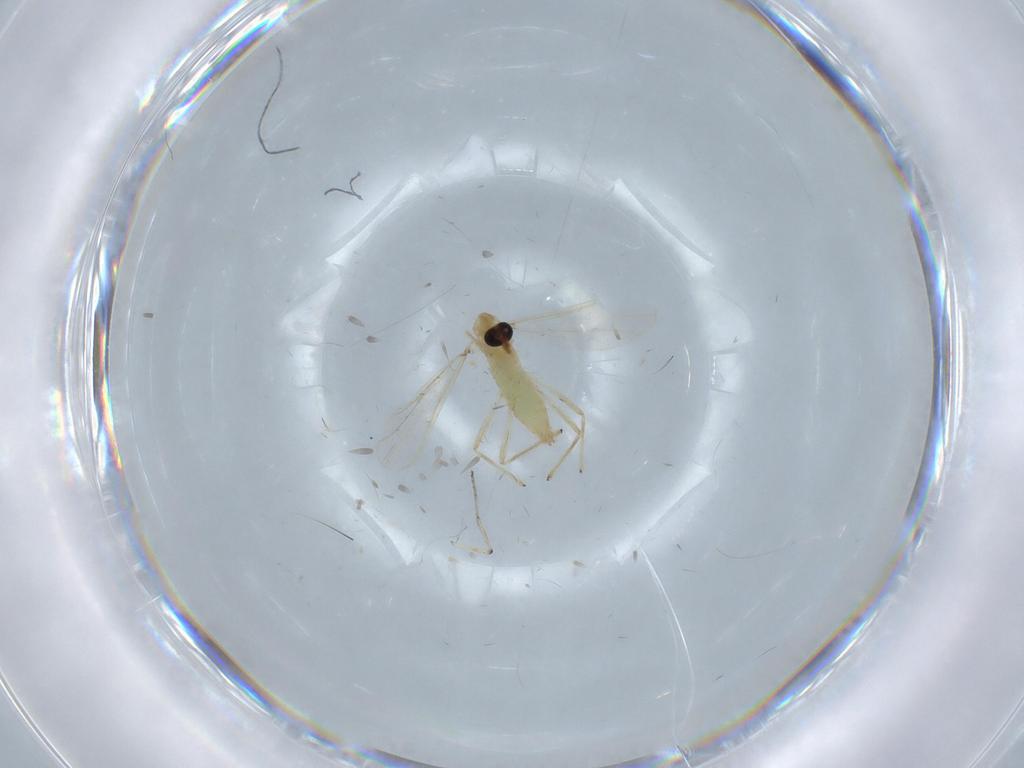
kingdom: Animalia
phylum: Arthropoda
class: Insecta
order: Diptera
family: Chironomidae
